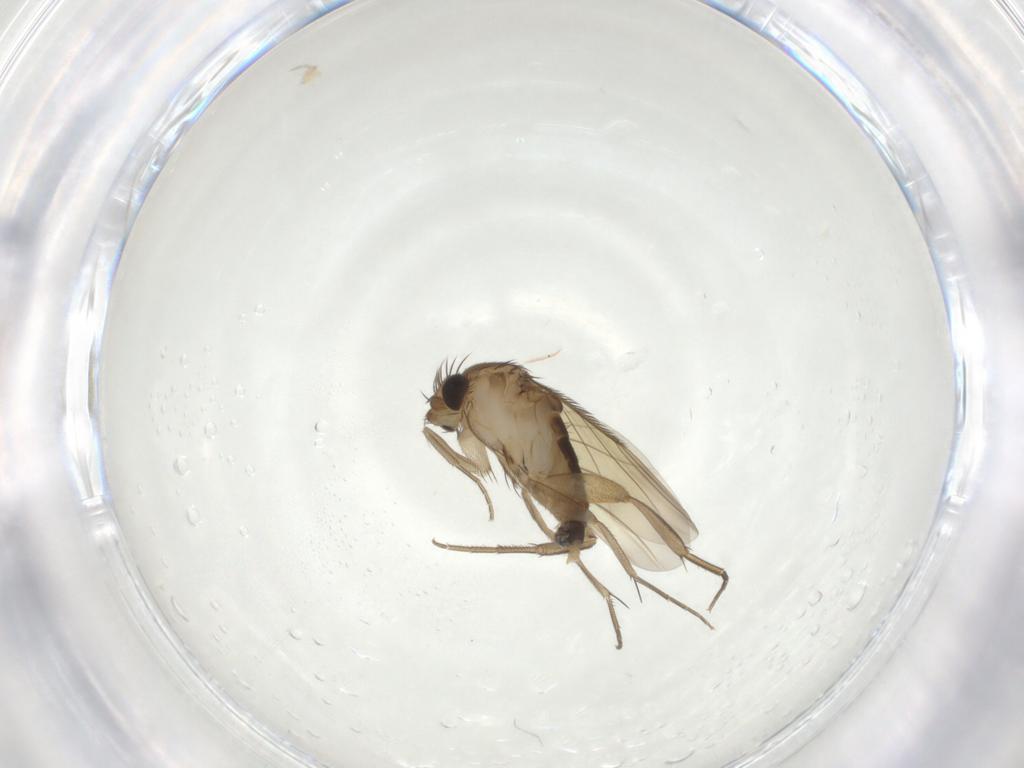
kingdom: Animalia
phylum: Arthropoda
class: Insecta
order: Diptera
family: Phoridae
